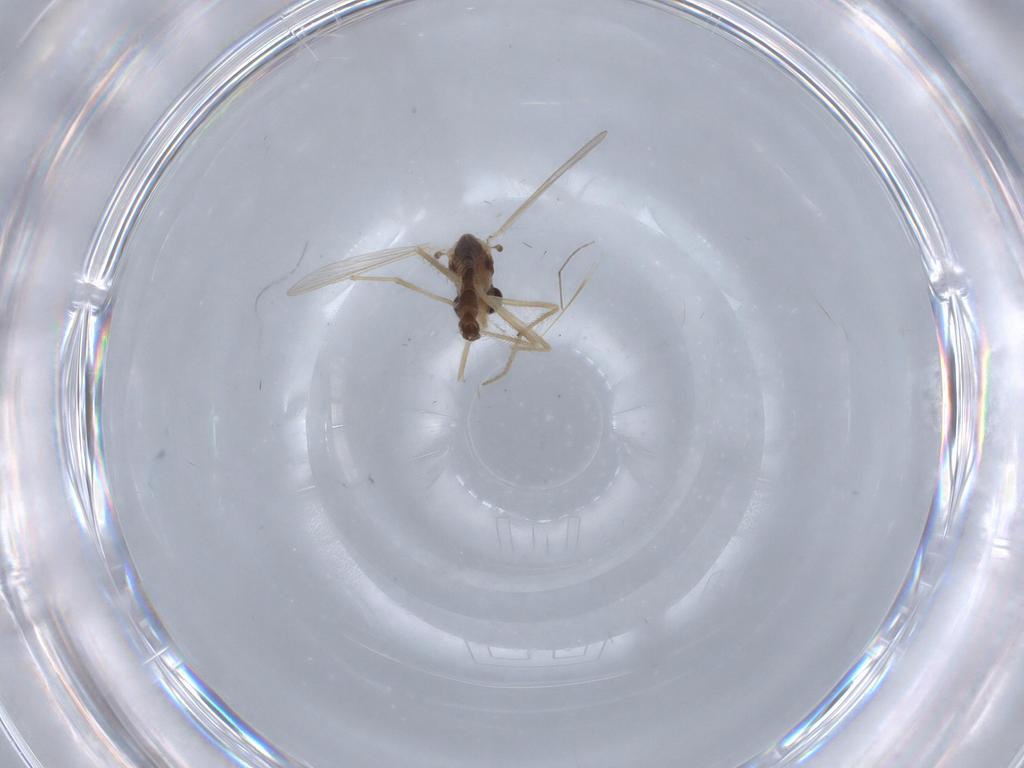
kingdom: Animalia
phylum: Arthropoda
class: Insecta
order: Diptera
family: Chironomidae
